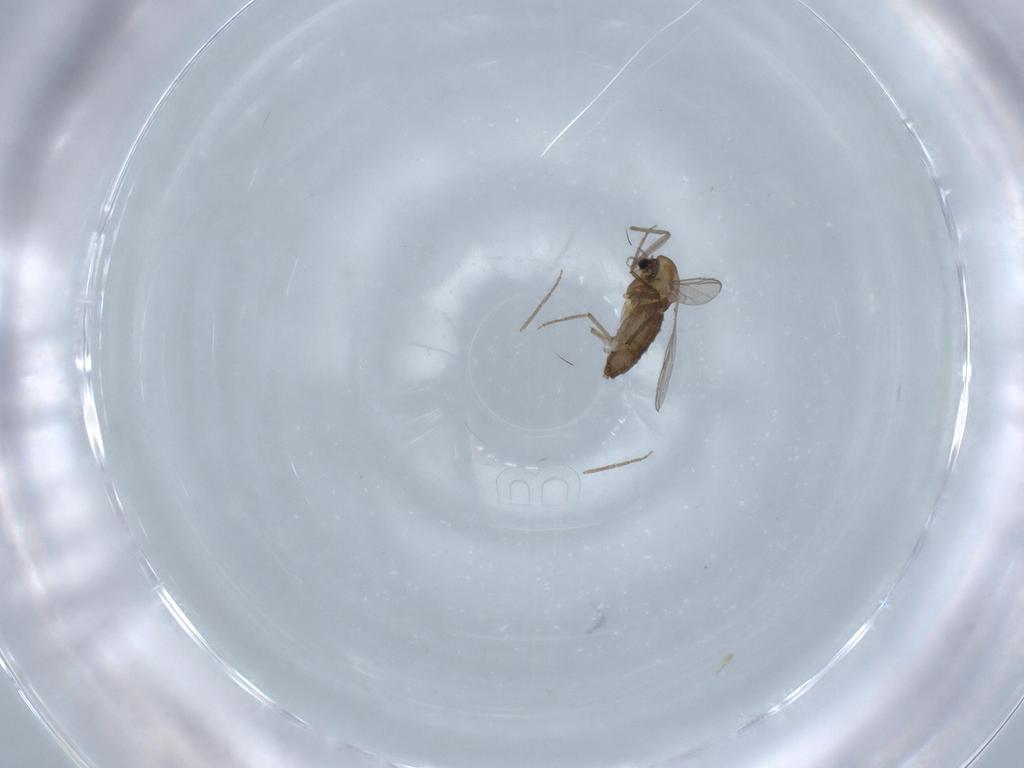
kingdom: Animalia
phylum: Arthropoda
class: Insecta
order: Diptera
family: Chironomidae
